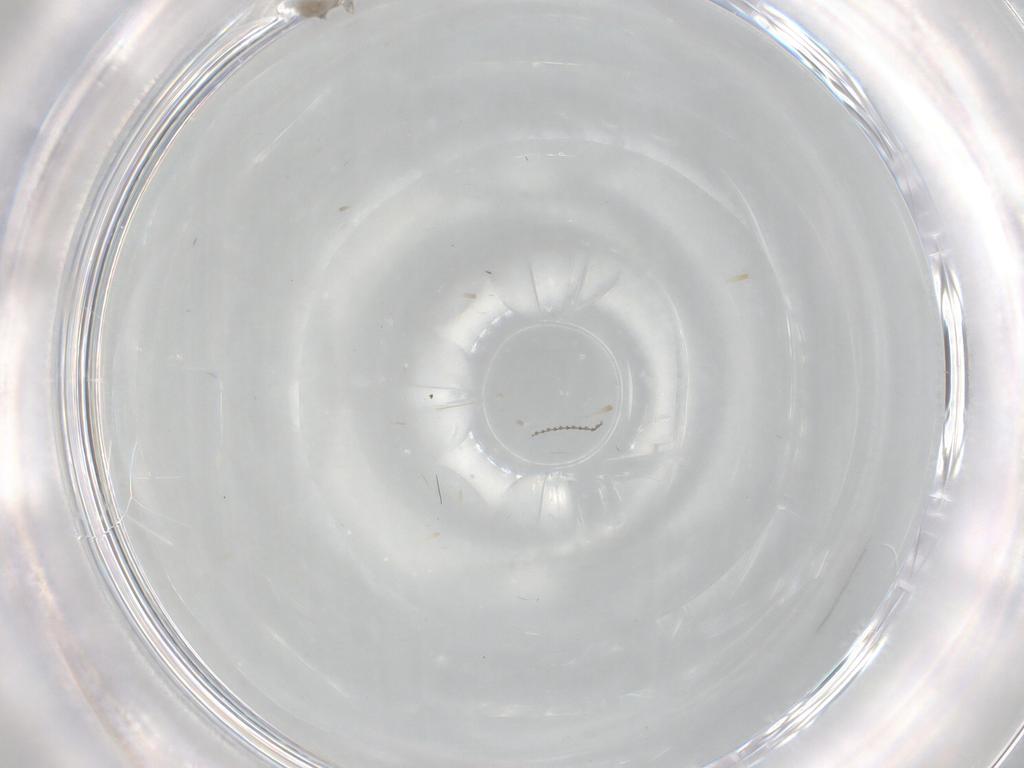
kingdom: Animalia
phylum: Arthropoda
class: Insecta
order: Diptera
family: Cecidomyiidae
